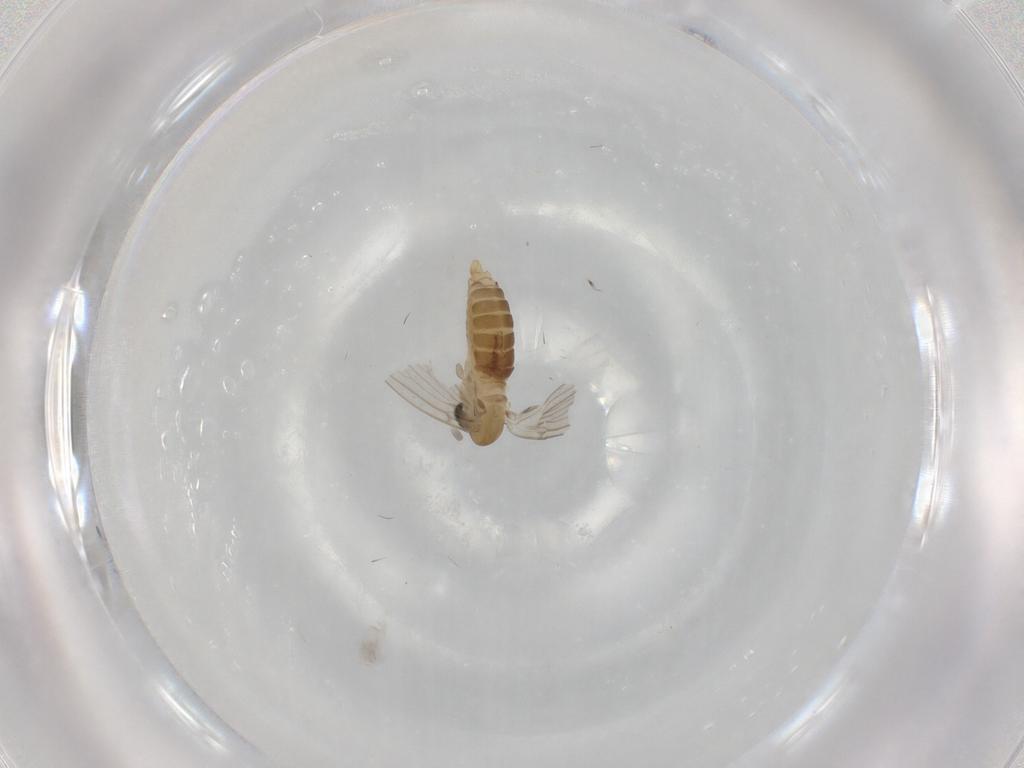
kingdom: Animalia
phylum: Arthropoda
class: Insecta
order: Diptera
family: Psychodidae
